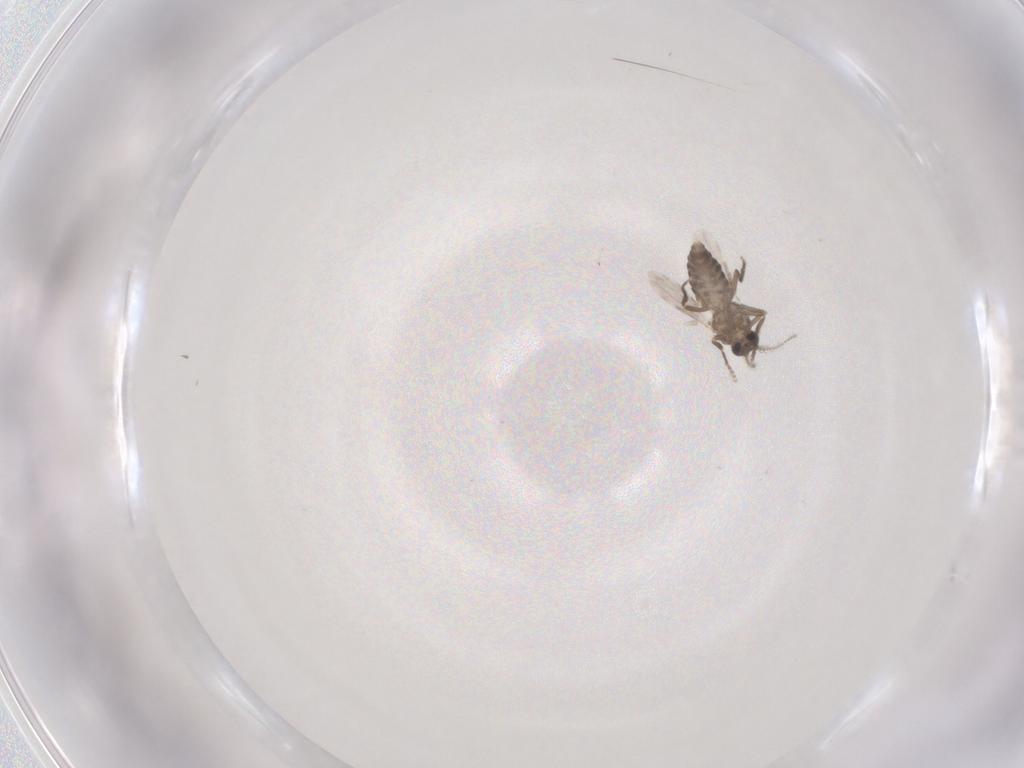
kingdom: Animalia
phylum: Arthropoda
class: Insecta
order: Diptera
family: Ceratopogonidae
